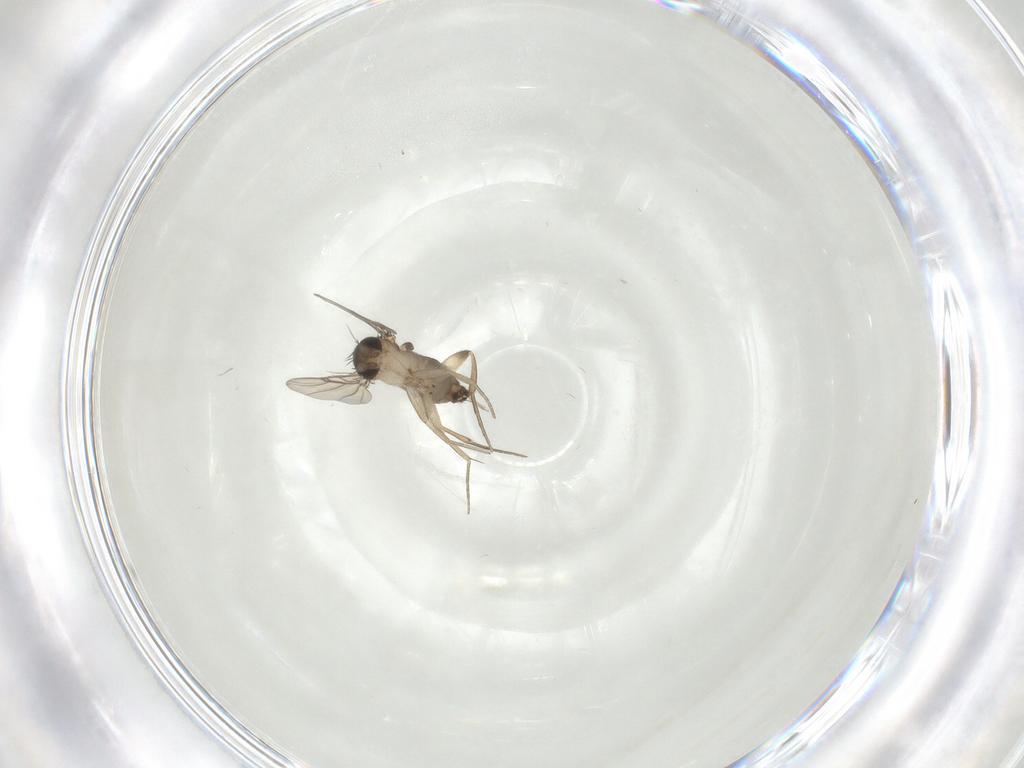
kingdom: Animalia
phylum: Arthropoda
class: Insecta
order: Diptera
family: Phoridae
